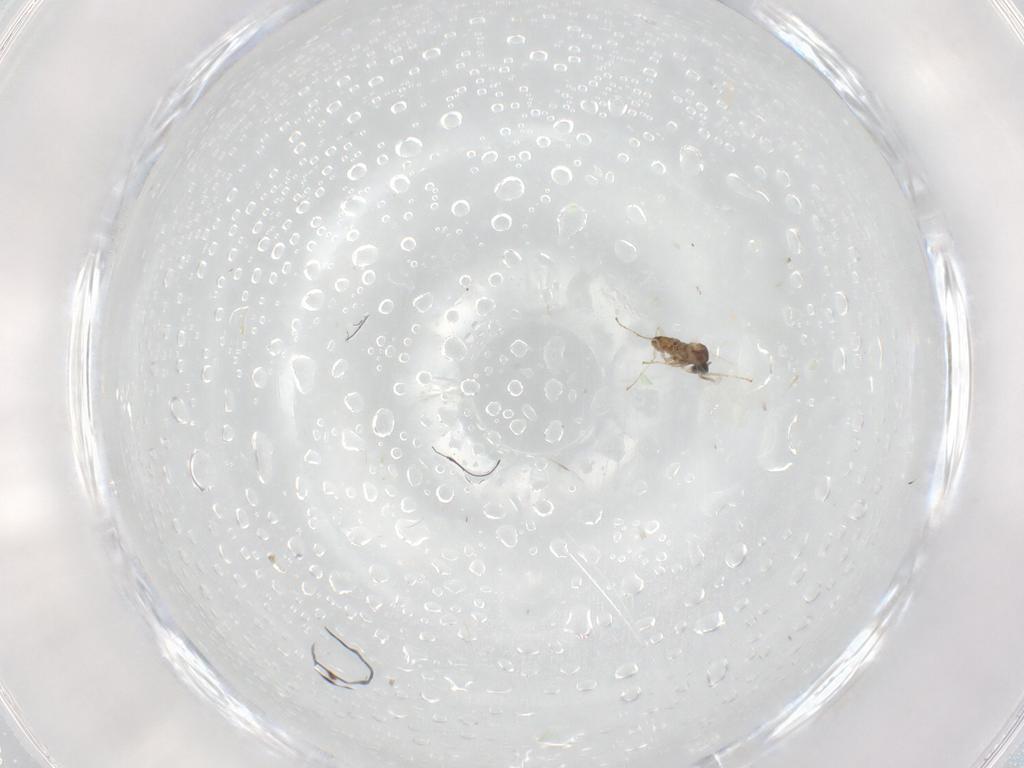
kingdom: Animalia
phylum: Arthropoda
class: Insecta
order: Diptera
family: Cecidomyiidae
